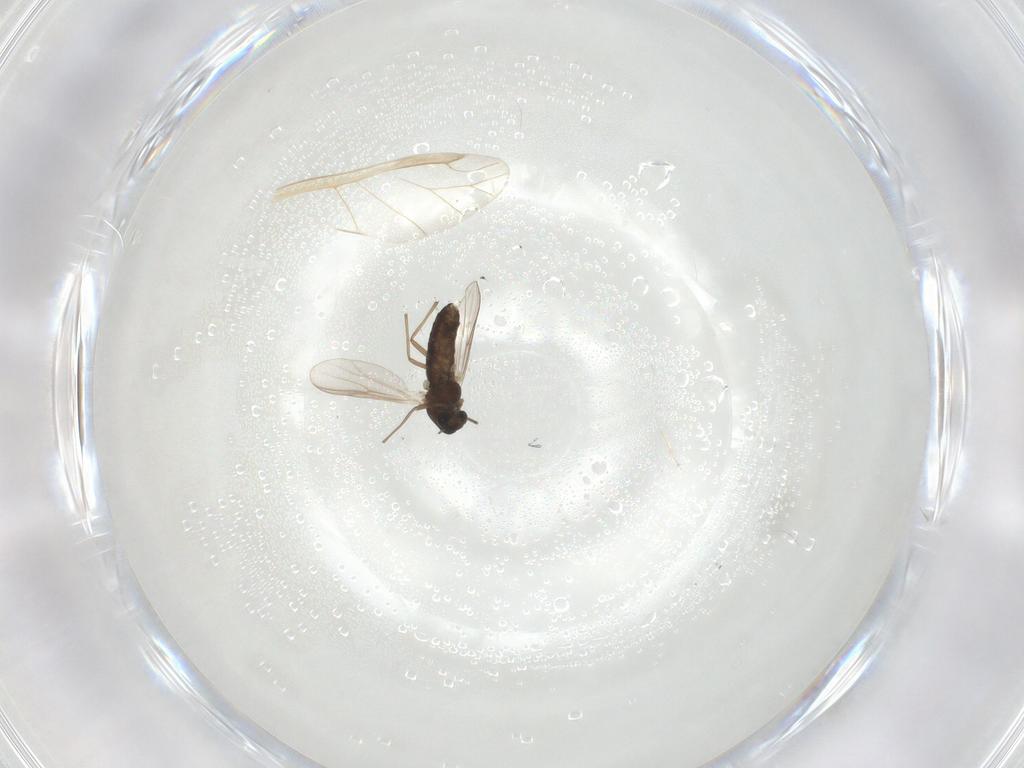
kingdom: Animalia
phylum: Arthropoda
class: Insecta
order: Diptera
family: Chironomidae
